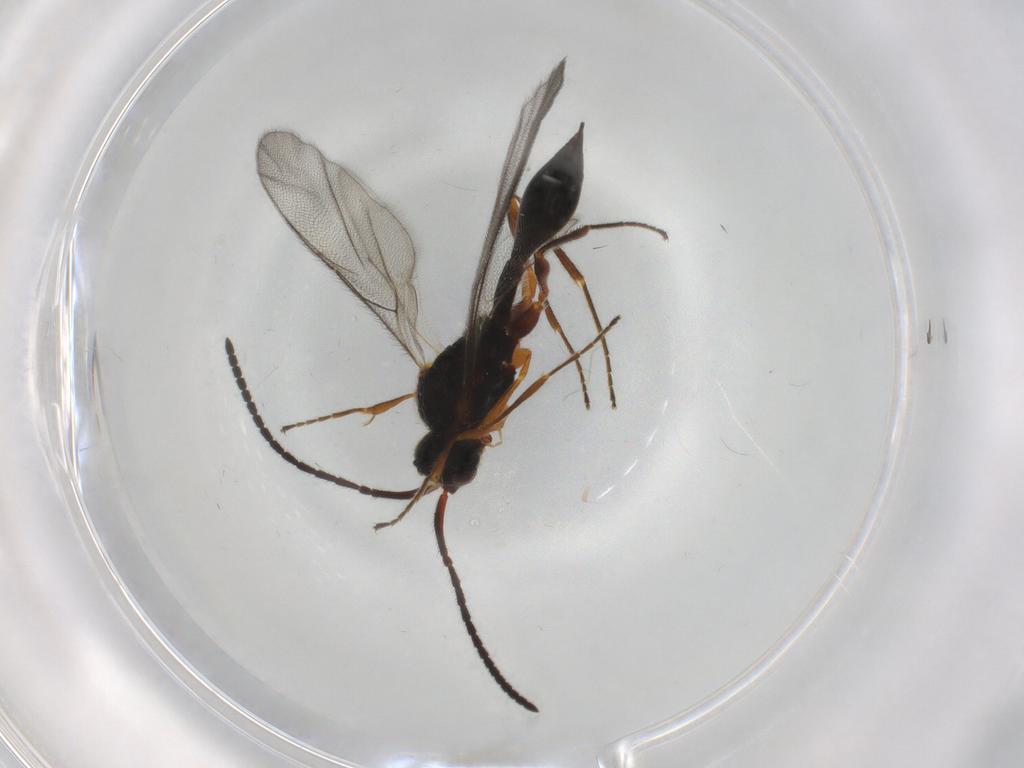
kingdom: Animalia
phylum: Arthropoda
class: Insecta
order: Hymenoptera
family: Diapriidae
